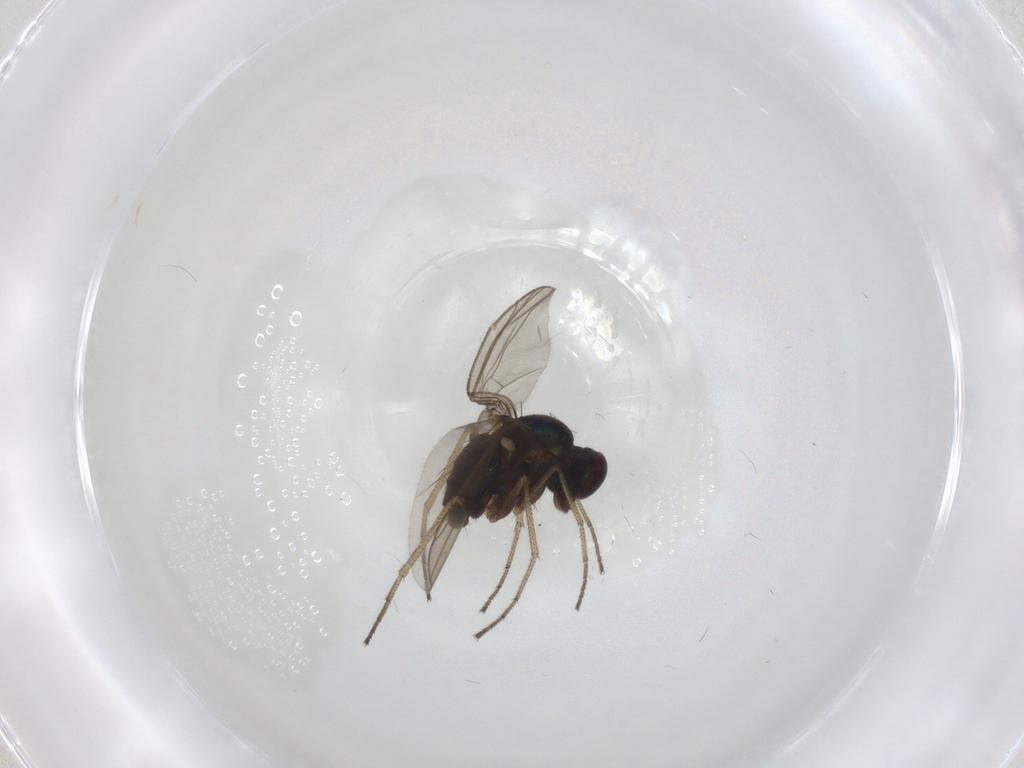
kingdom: Animalia
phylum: Arthropoda
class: Insecta
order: Diptera
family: Dolichopodidae
